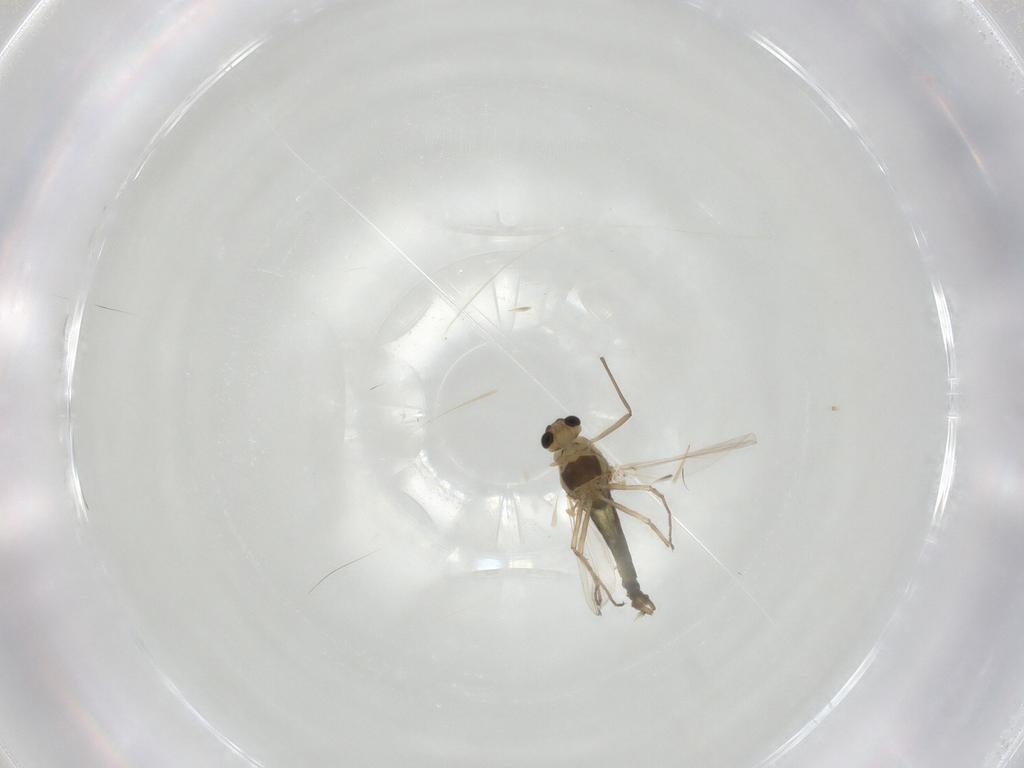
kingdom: Animalia
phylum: Arthropoda
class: Insecta
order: Diptera
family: Chironomidae
